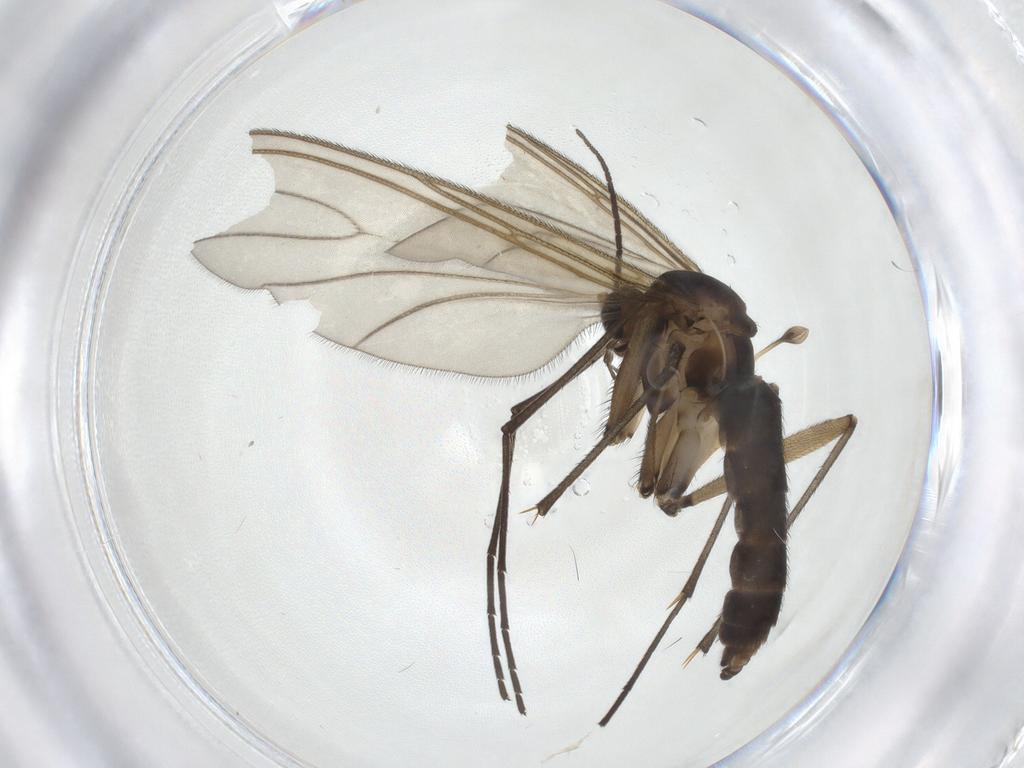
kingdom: Animalia
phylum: Arthropoda
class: Insecta
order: Diptera
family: Sciaridae
